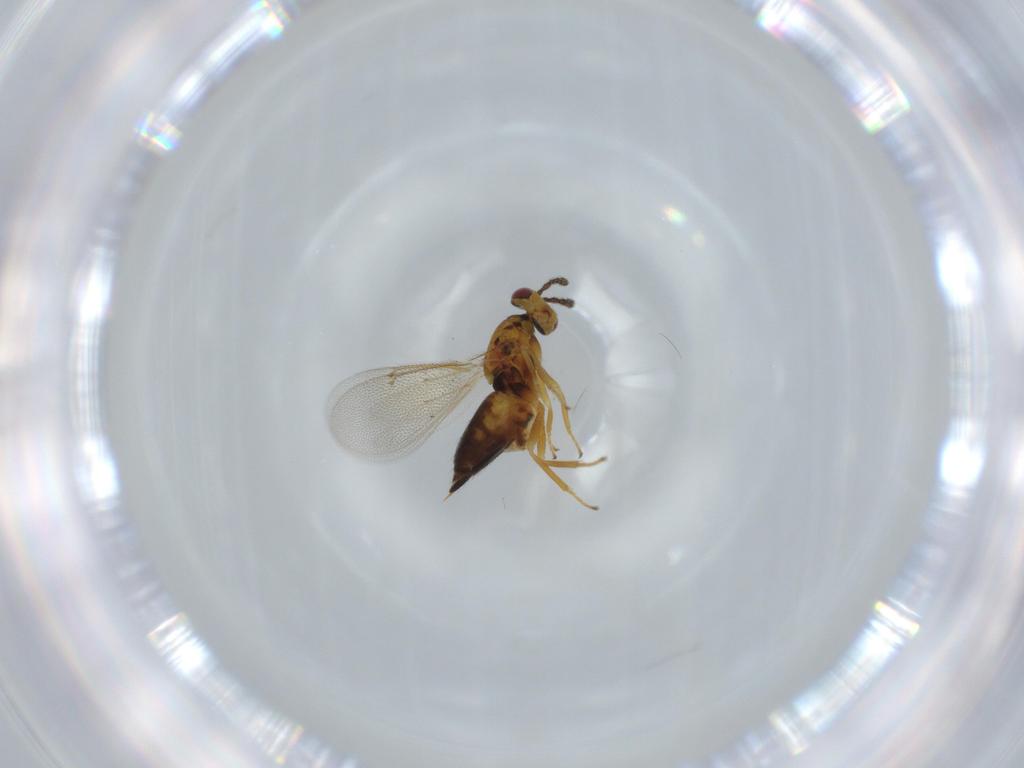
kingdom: Animalia
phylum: Arthropoda
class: Insecta
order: Hymenoptera
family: Eulophidae
